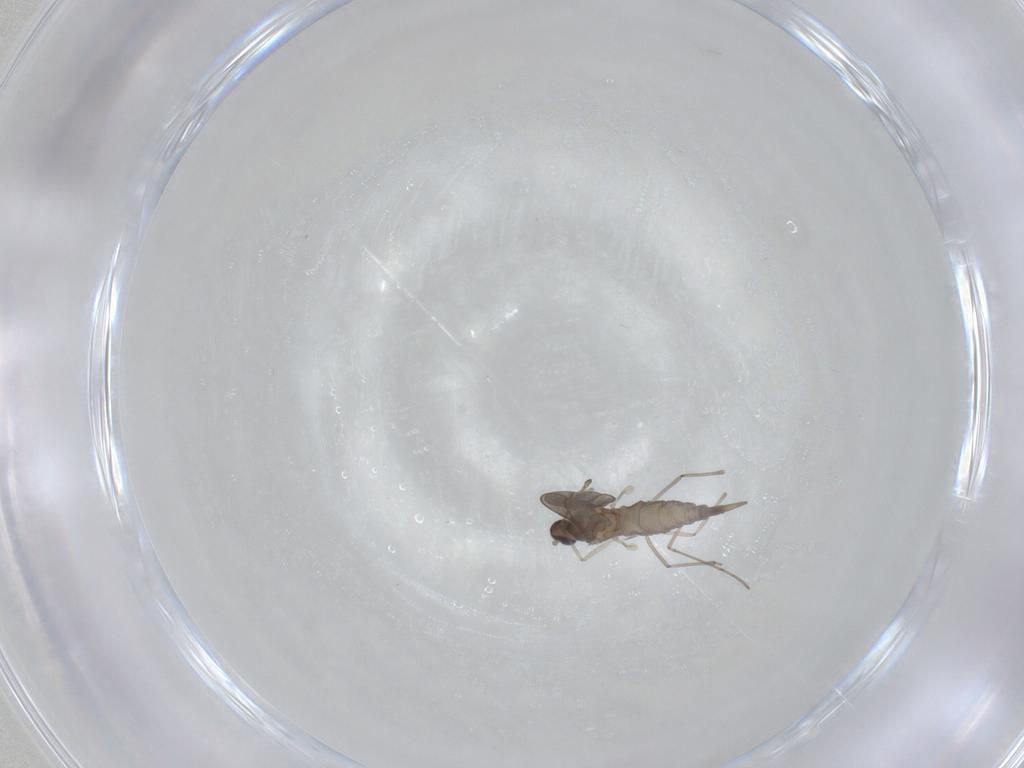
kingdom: Animalia
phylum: Arthropoda
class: Insecta
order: Diptera
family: Cecidomyiidae
